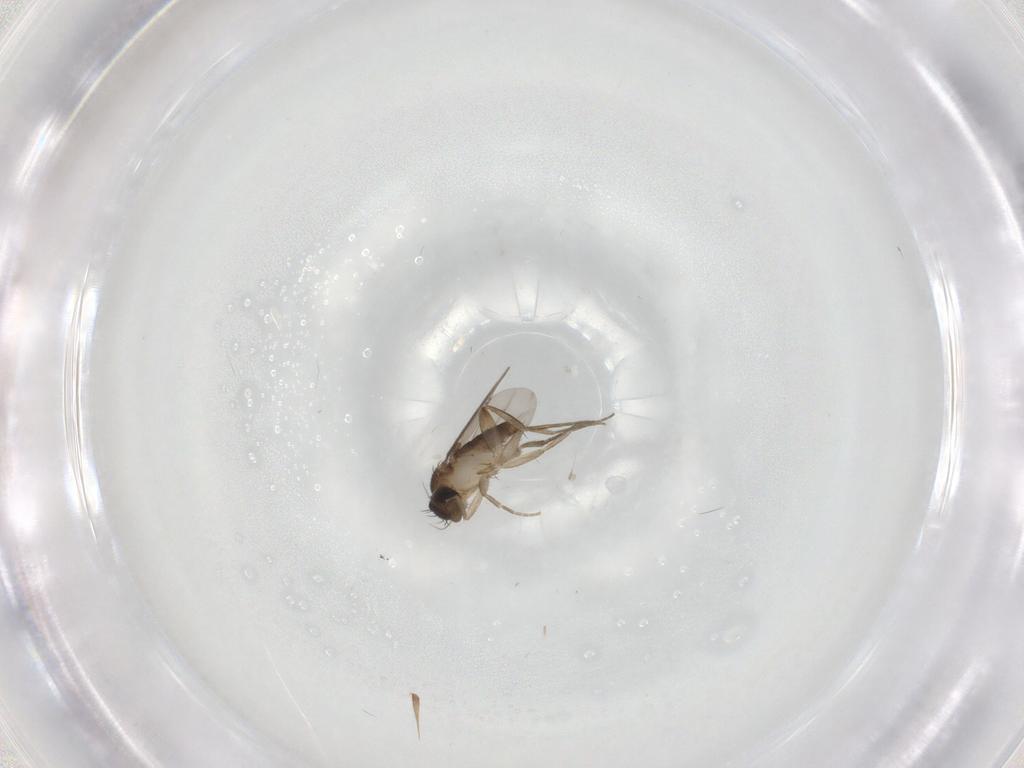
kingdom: Animalia
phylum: Arthropoda
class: Insecta
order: Diptera
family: Phoridae
